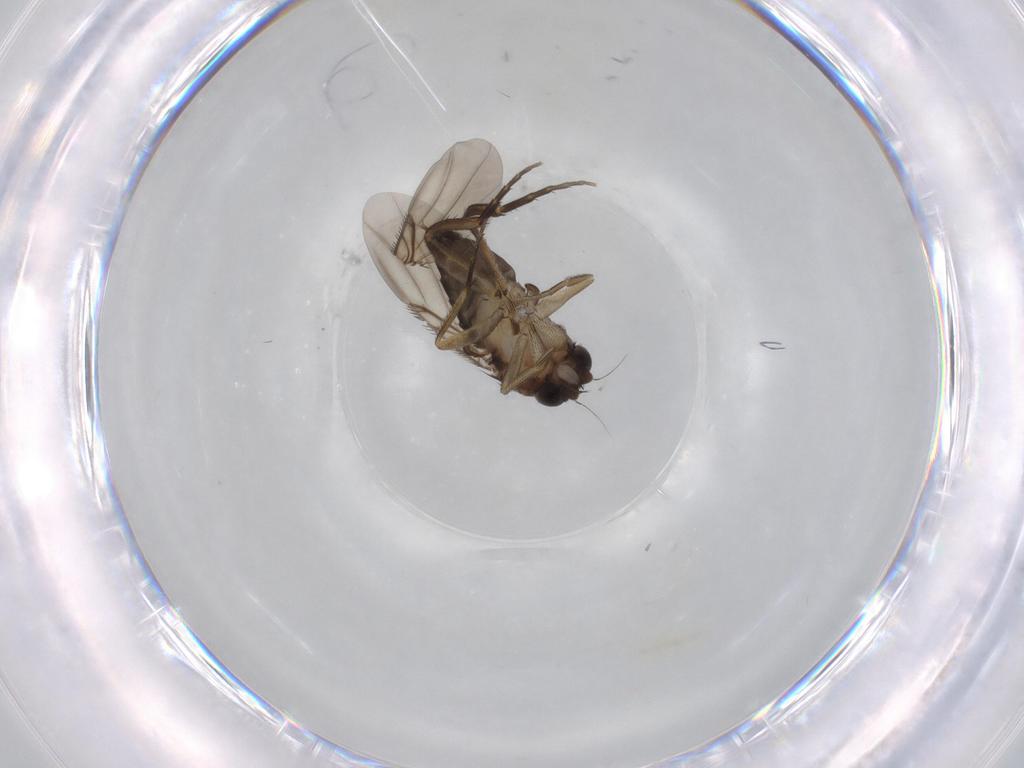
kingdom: Animalia
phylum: Arthropoda
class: Insecta
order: Diptera
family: Phoridae
